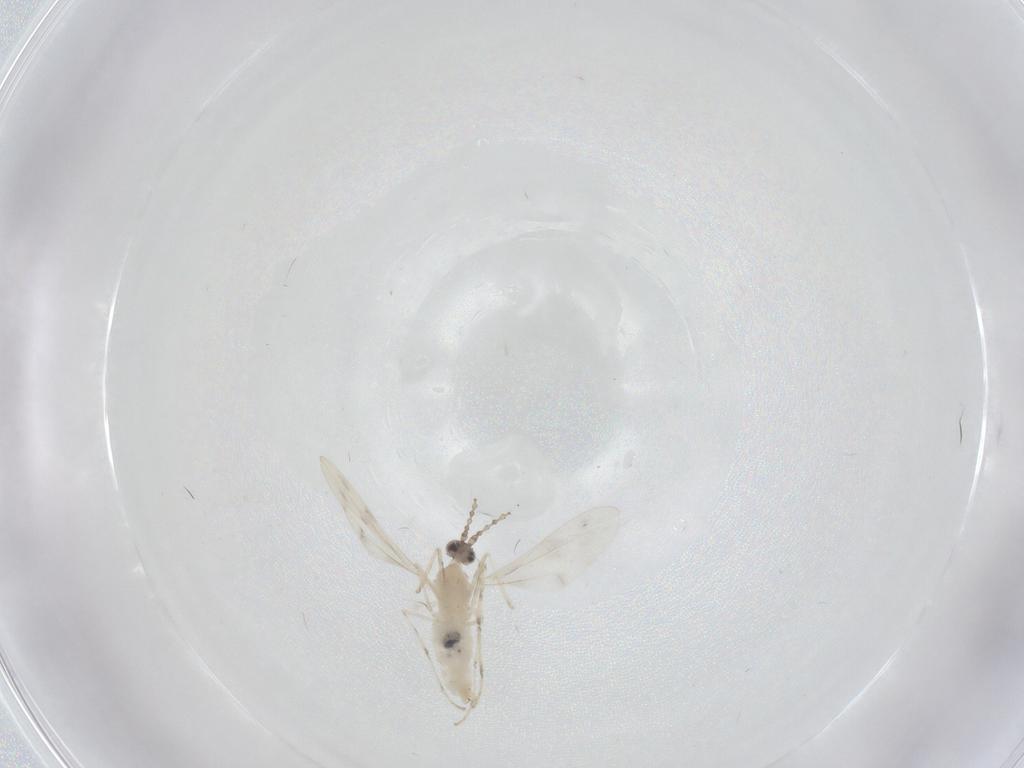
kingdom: Animalia
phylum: Arthropoda
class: Insecta
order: Diptera
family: Cecidomyiidae
